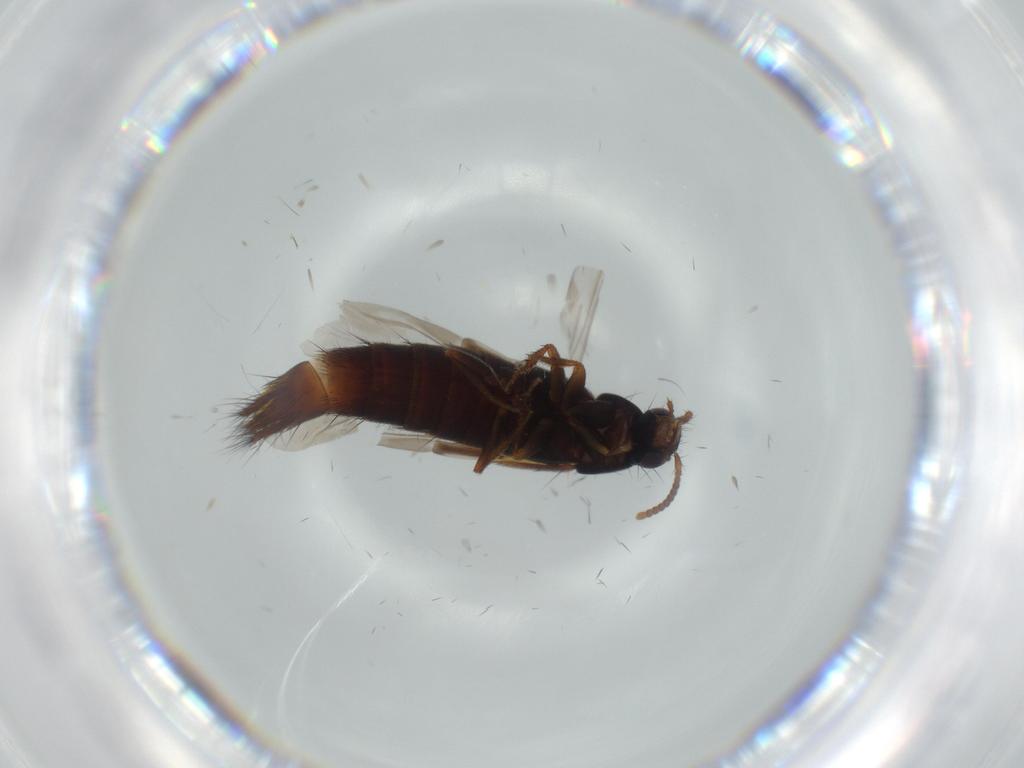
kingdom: Animalia
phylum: Arthropoda
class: Insecta
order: Coleoptera
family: Staphylinidae
